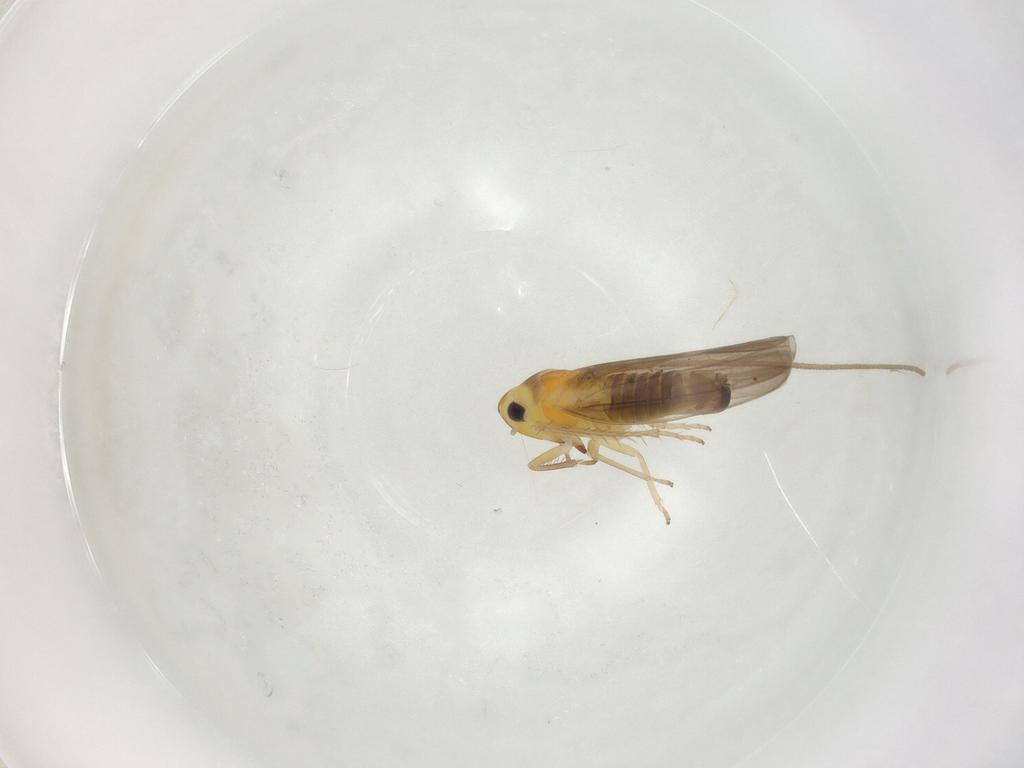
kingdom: Animalia
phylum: Arthropoda
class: Insecta
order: Hemiptera
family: Cicadellidae
